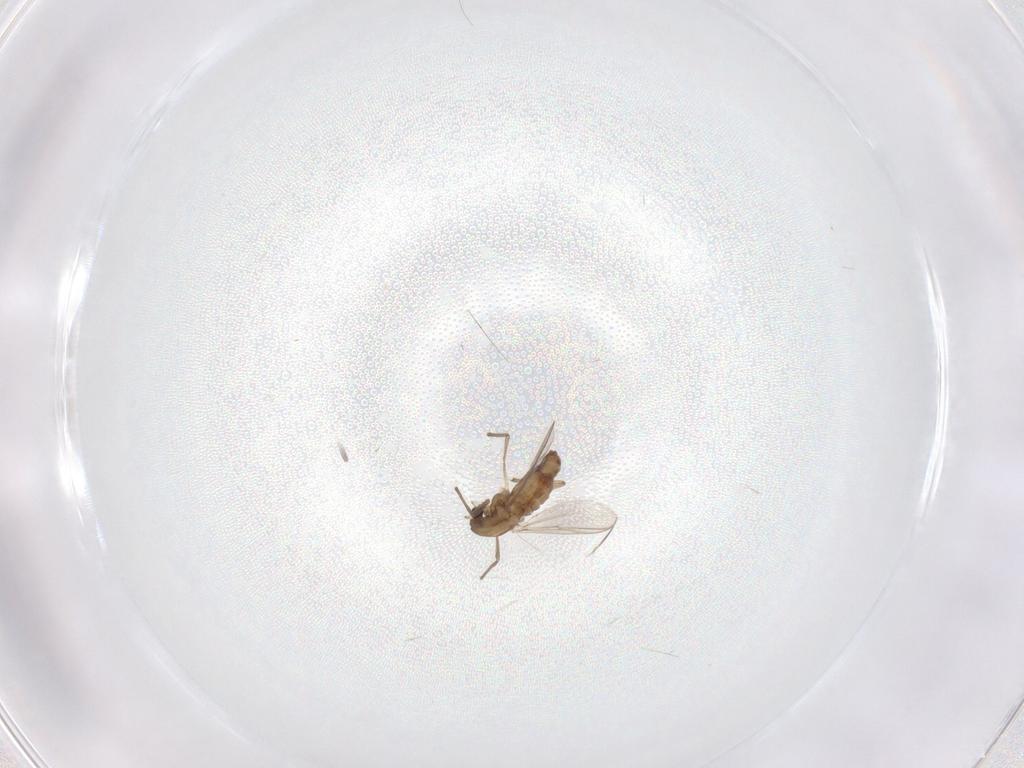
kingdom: Animalia
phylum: Arthropoda
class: Insecta
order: Diptera
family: Chironomidae
